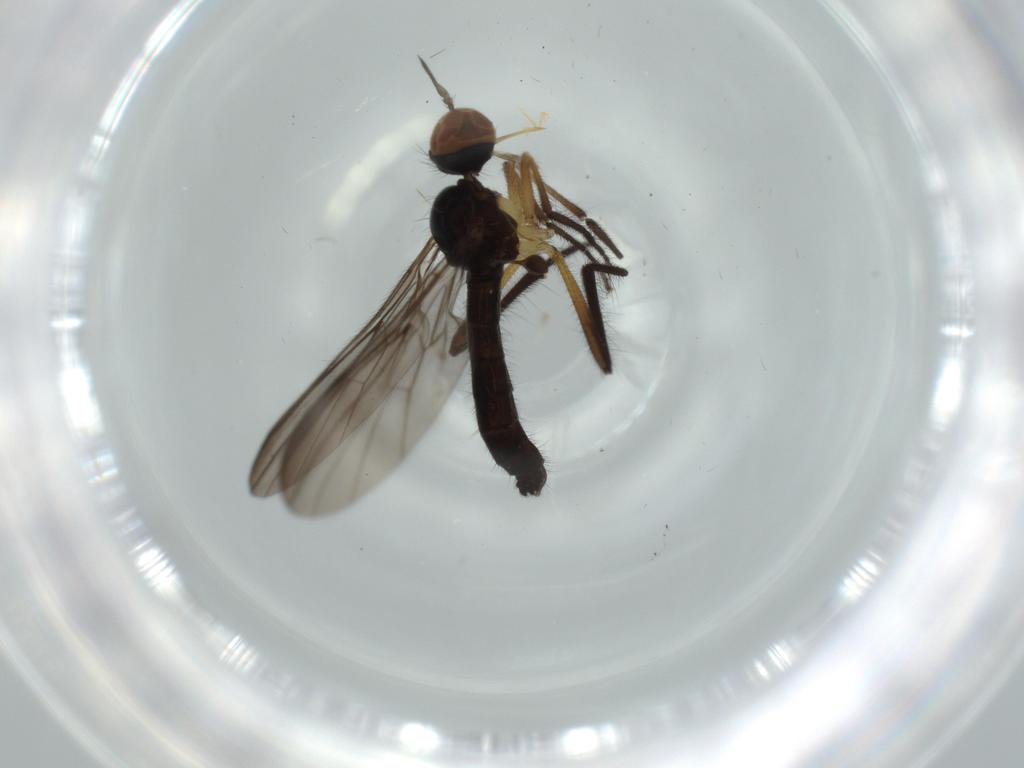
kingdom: Animalia
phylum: Arthropoda
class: Insecta
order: Diptera
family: Empididae
